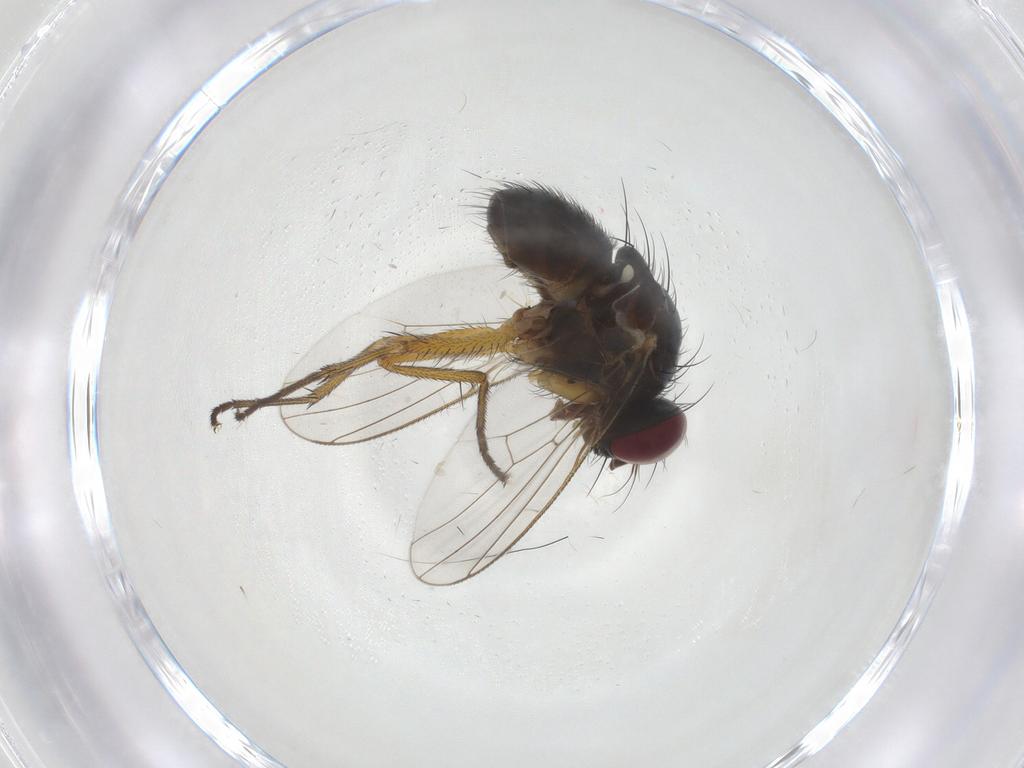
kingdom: Animalia
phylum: Arthropoda
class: Insecta
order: Diptera
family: Muscidae
